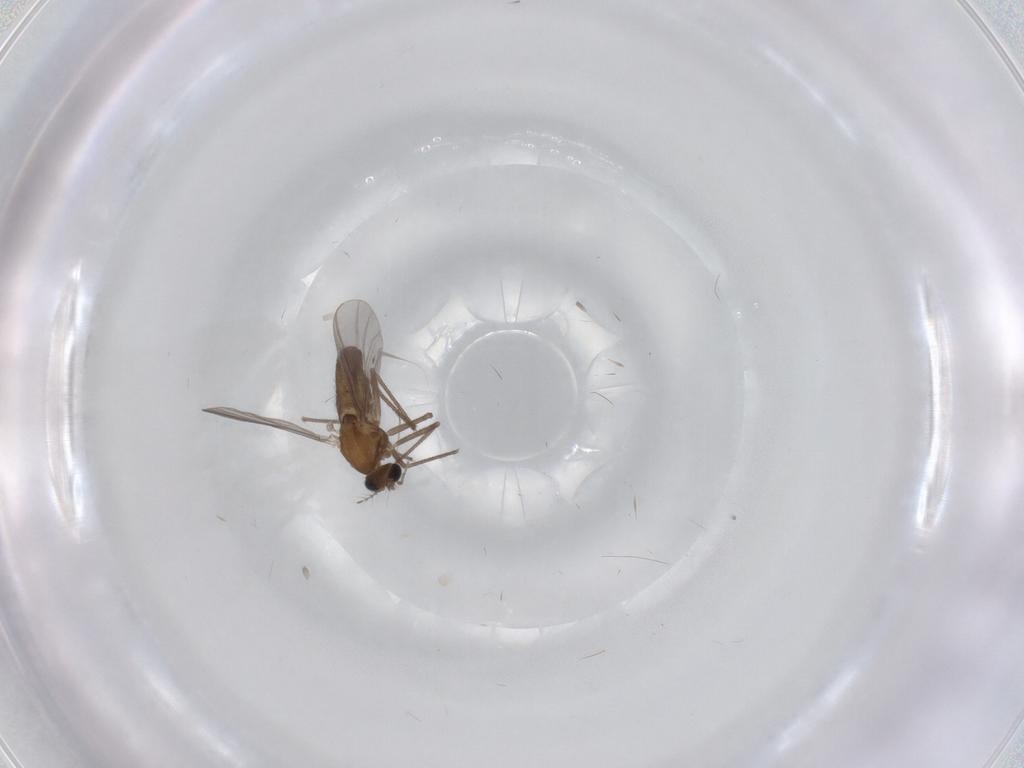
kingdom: Animalia
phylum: Arthropoda
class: Insecta
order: Diptera
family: Chironomidae
